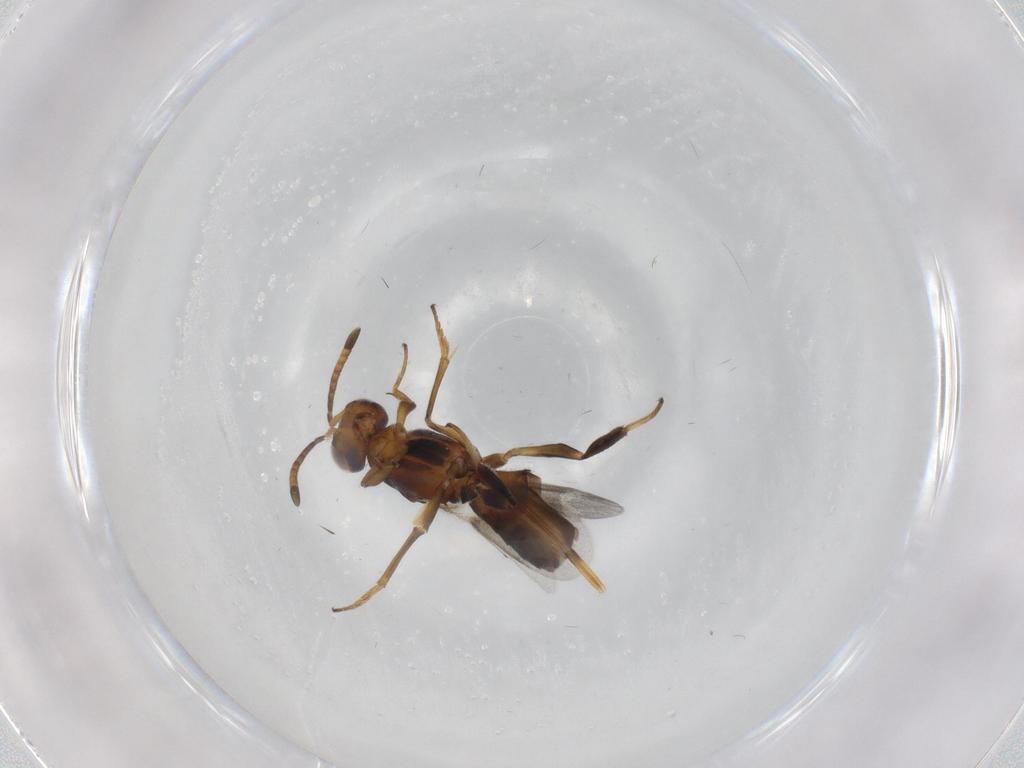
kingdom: Animalia
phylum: Arthropoda
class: Insecta
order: Hymenoptera
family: Eupelmidae
